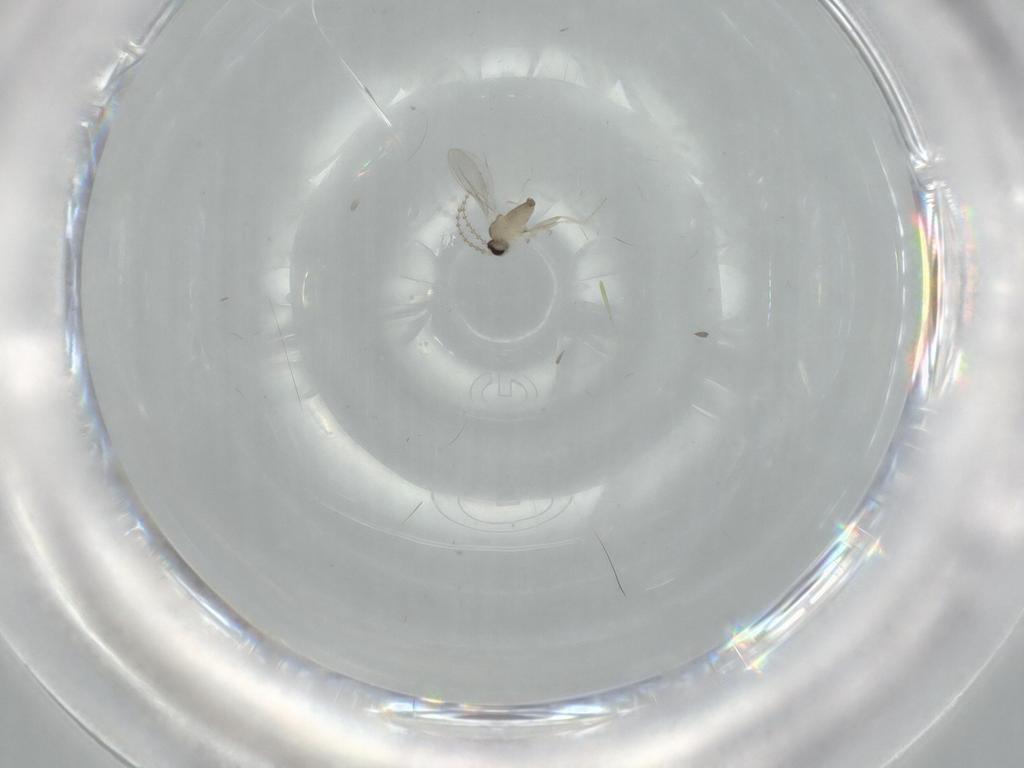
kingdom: Animalia
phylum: Arthropoda
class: Insecta
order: Diptera
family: Cecidomyiidae
